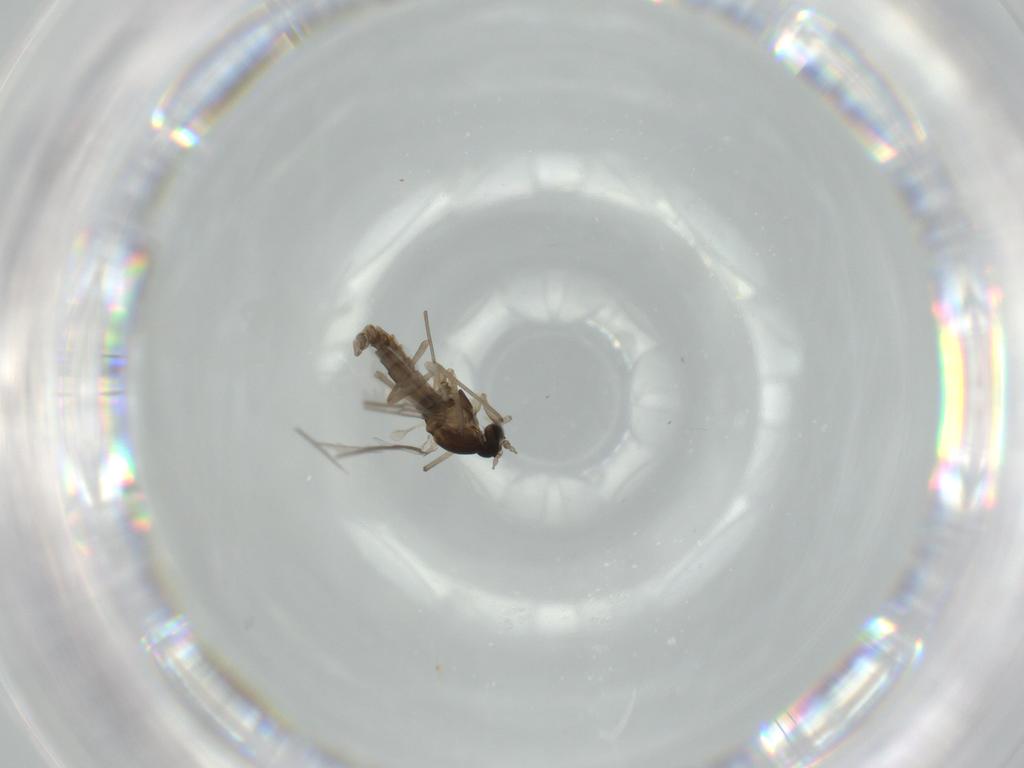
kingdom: Animalia
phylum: Arthropoda
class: Insecta
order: Diptera
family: Cecidomyiidae
